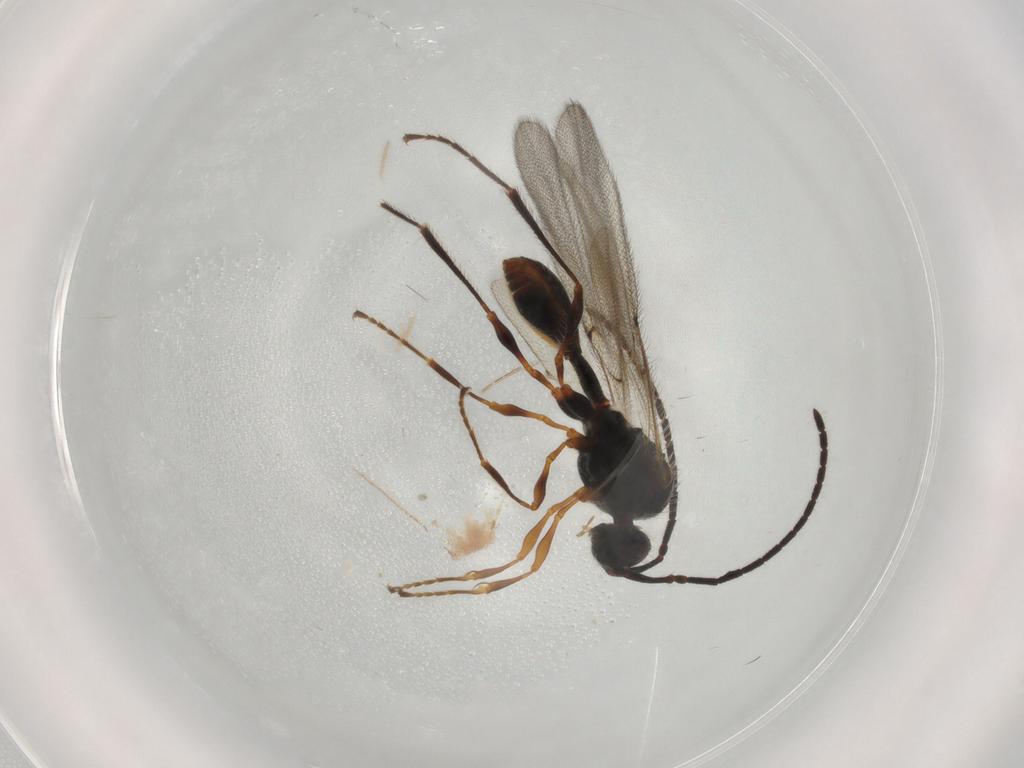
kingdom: Animalia
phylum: Arthropoda
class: Insecta
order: Hymenoptera
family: Diapriidae
